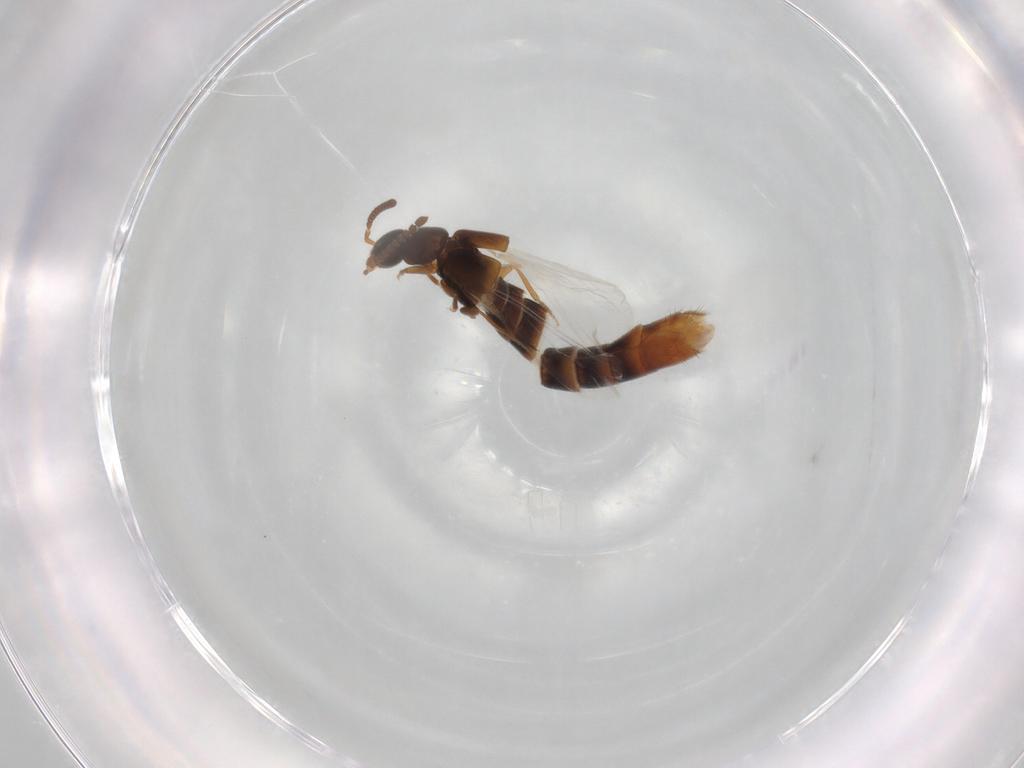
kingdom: Animalia
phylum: Arthropoda
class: Insecta
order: Coleoptera
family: Staphylinidae
